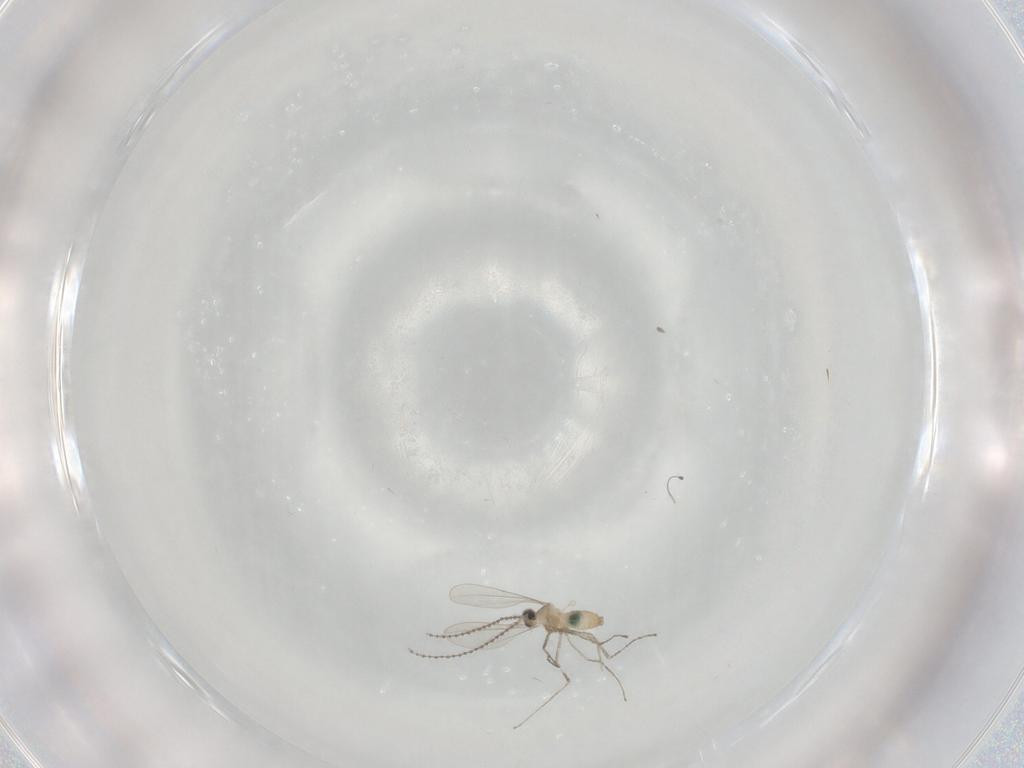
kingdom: Animalia
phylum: Arthropoda
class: Insecta
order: Diptera
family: Ceratopogonidae
